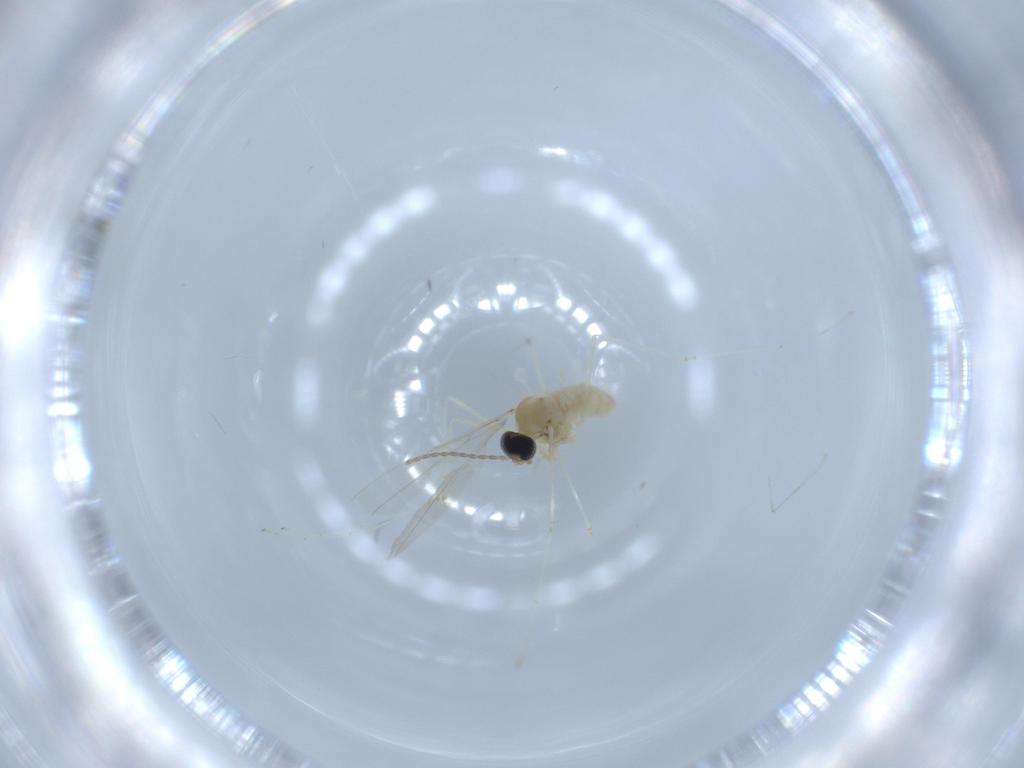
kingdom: Animalia
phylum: Arthropoda
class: Insecta
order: Diptera
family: Cecidomyiidae
